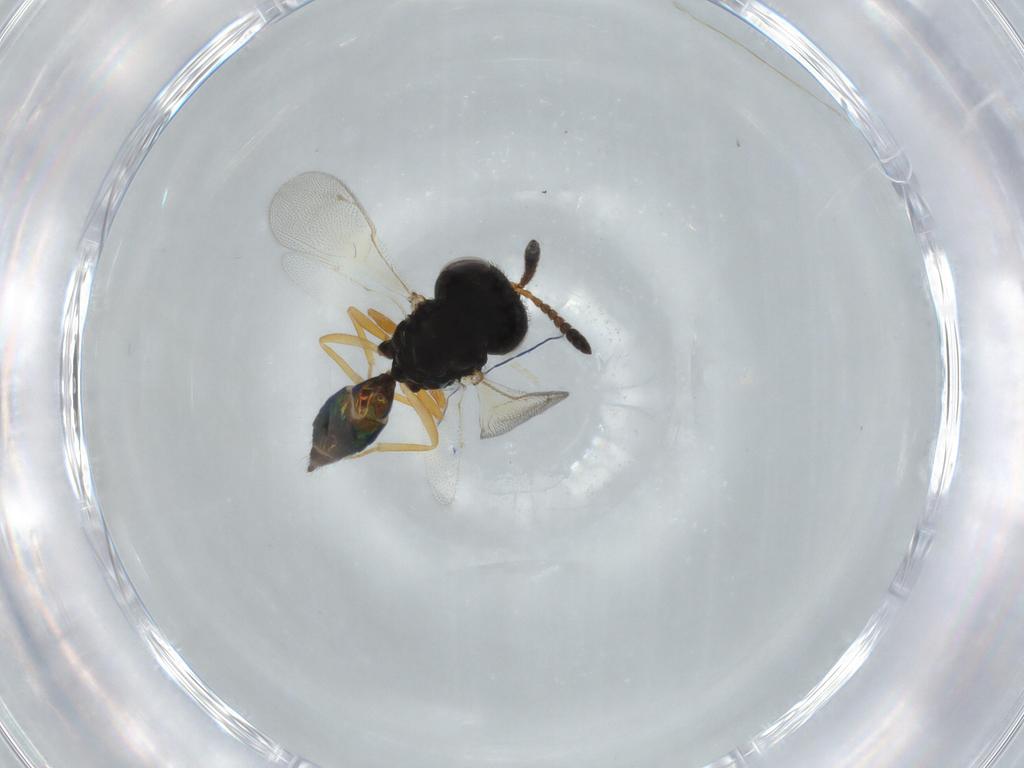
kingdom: Animalia
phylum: Arthropoda
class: Insecta
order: Hymenoptera
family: Pteromalidae
